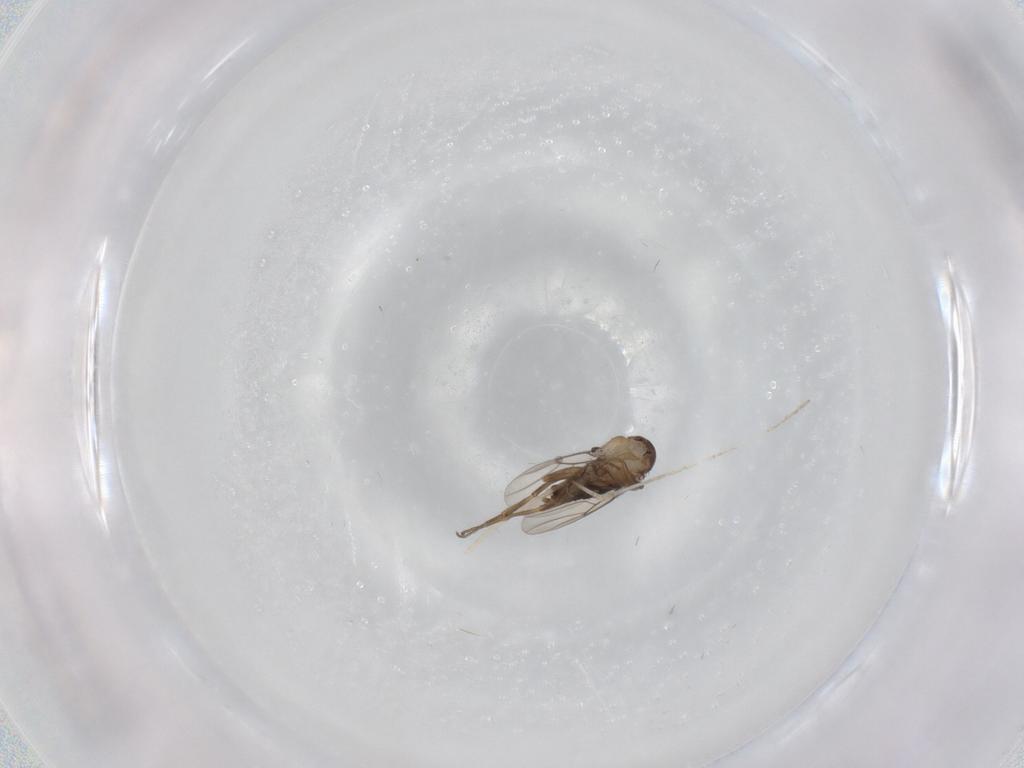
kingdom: Animalia
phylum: Arthropoda
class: Insecta
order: Diptera
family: Phoridae
